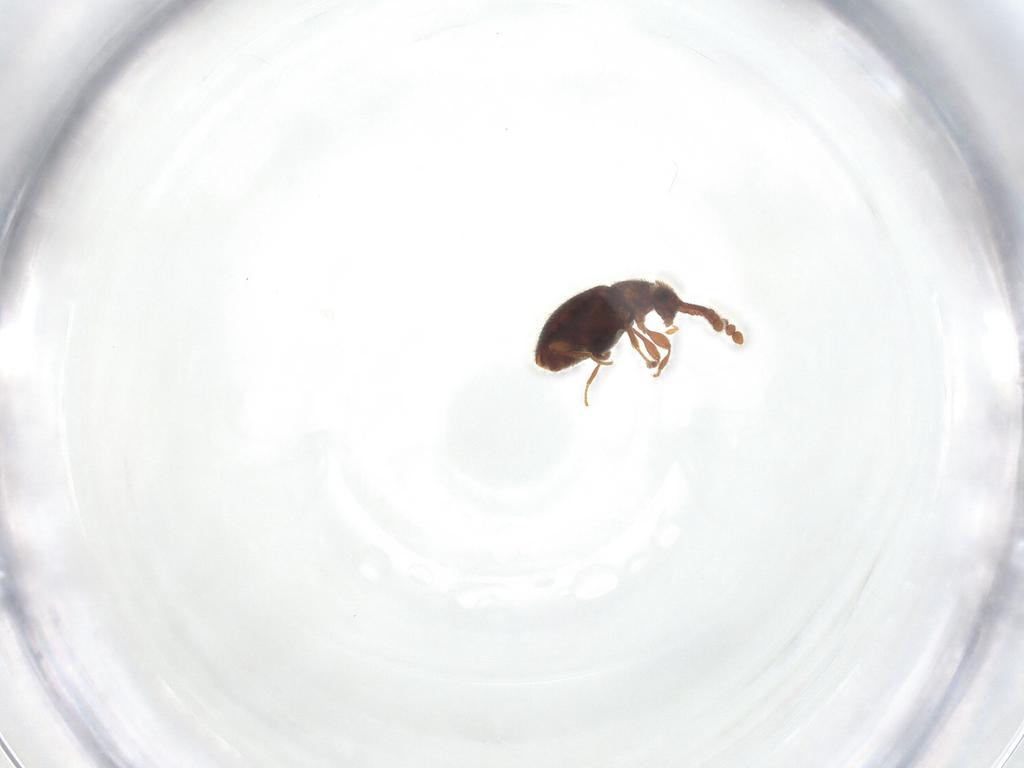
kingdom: Animalia
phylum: Arthropoda
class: Insecta
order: Coleoptera
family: Staphylinidae
